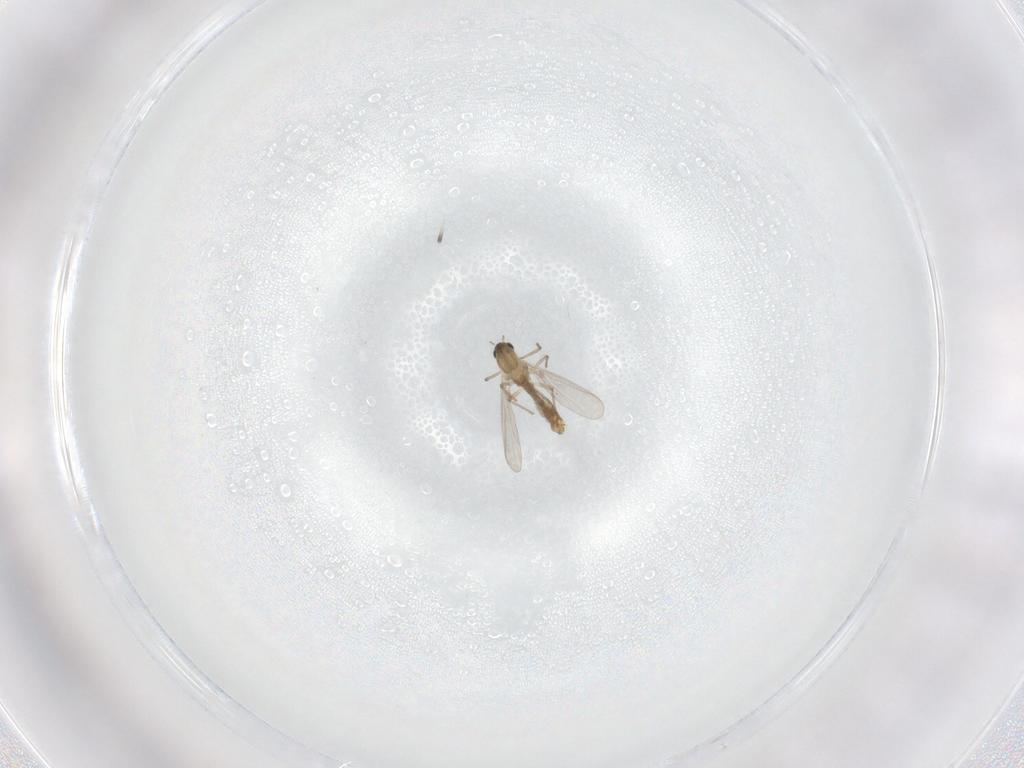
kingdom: Animalia
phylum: Arthropoda
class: Insecta
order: Diptera
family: Chironomidae
